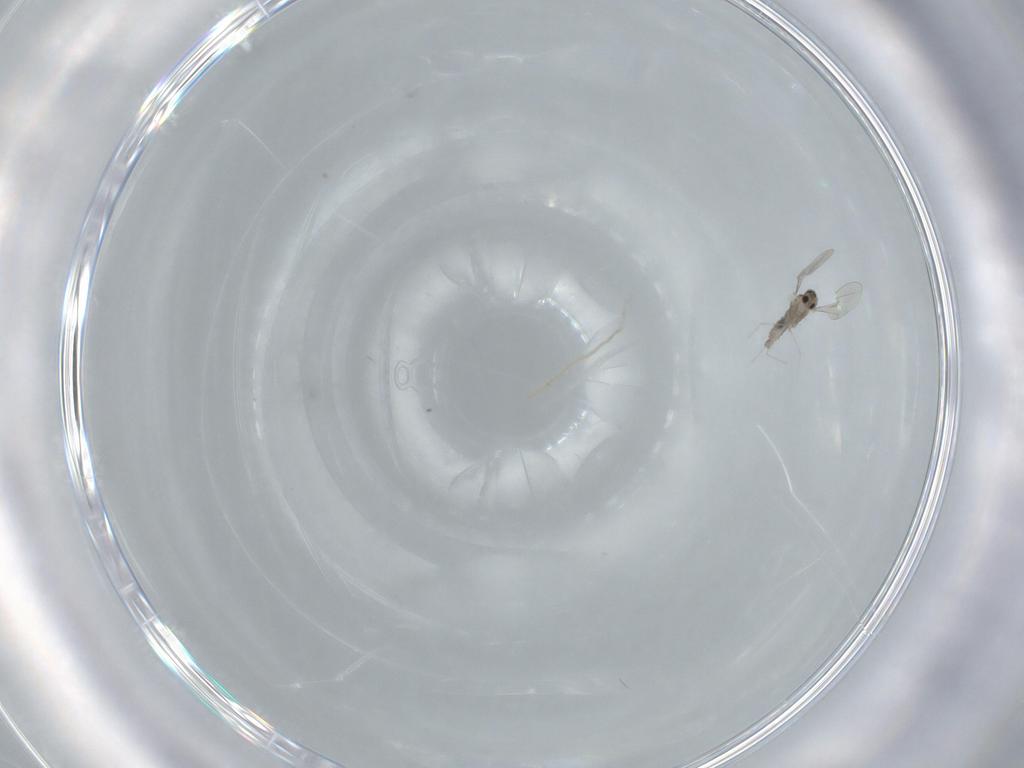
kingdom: Animalia
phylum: Arthropoda
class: Insecta
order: Diptera
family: Cecidomyiidae
